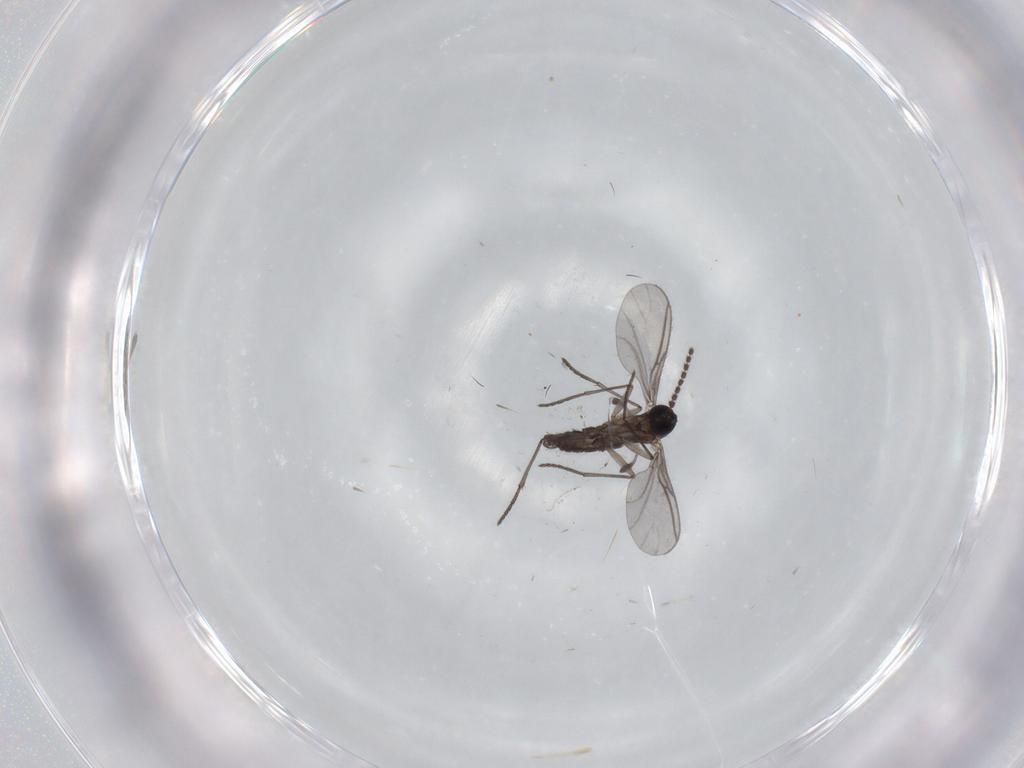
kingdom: Animalia
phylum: Arthropoda
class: Insecta
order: Diptera
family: Sciaridae
